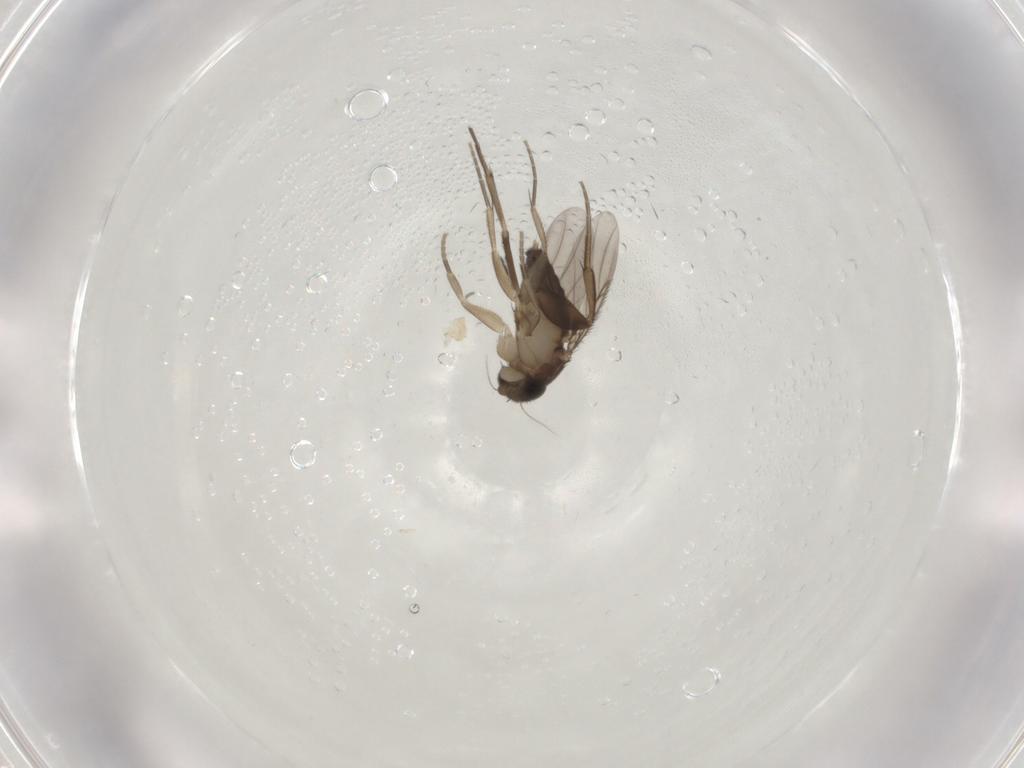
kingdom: Animalia
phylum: Arthropoda
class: Insecta
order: Diptera
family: Phoridae
